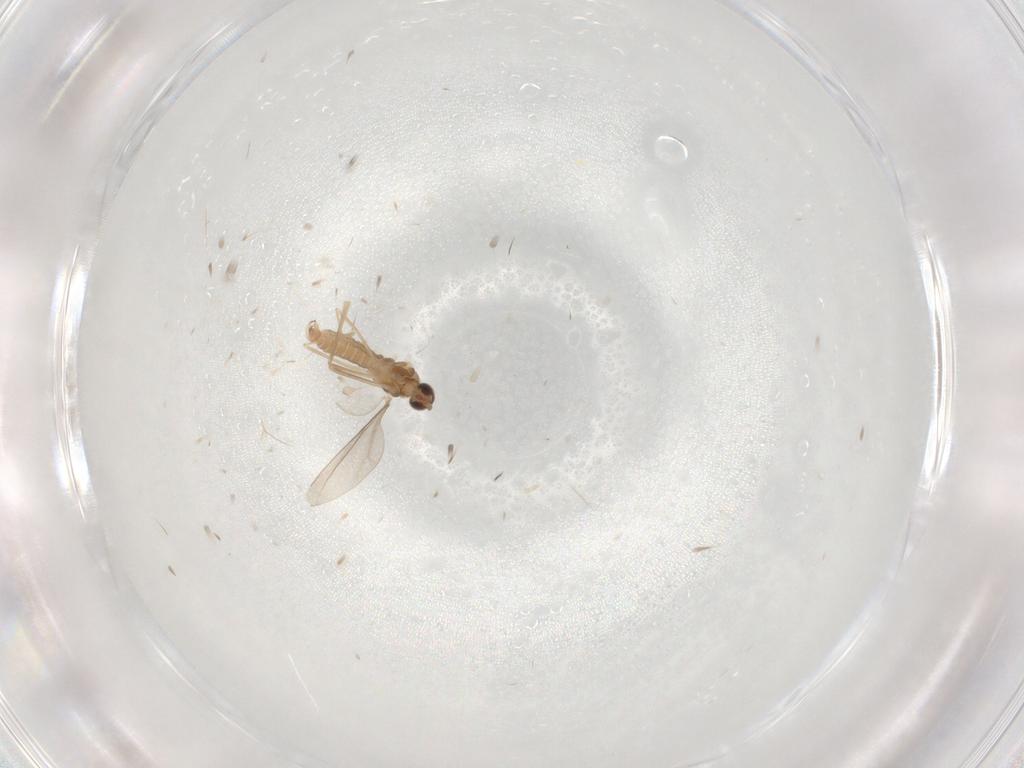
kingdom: Animalia
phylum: Arthropoda
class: Insecta
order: Diptera
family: Cecidomyiidae
